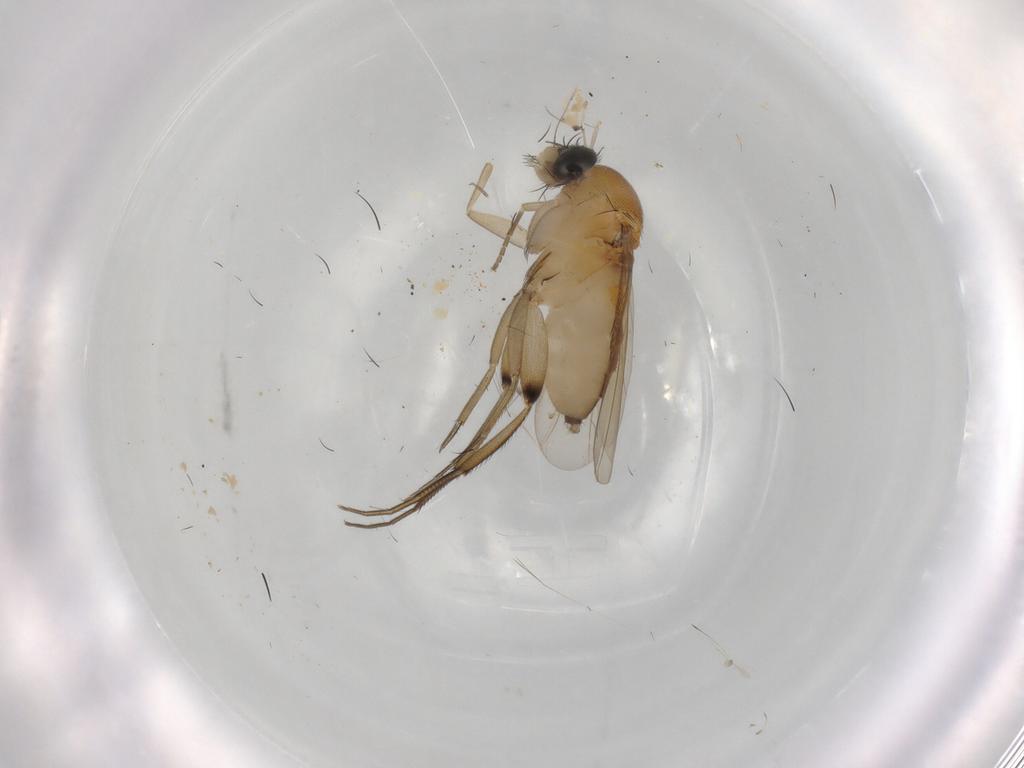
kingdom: Animalia
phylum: Arthropoda
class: Insecta
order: Diptera
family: Phoridae
